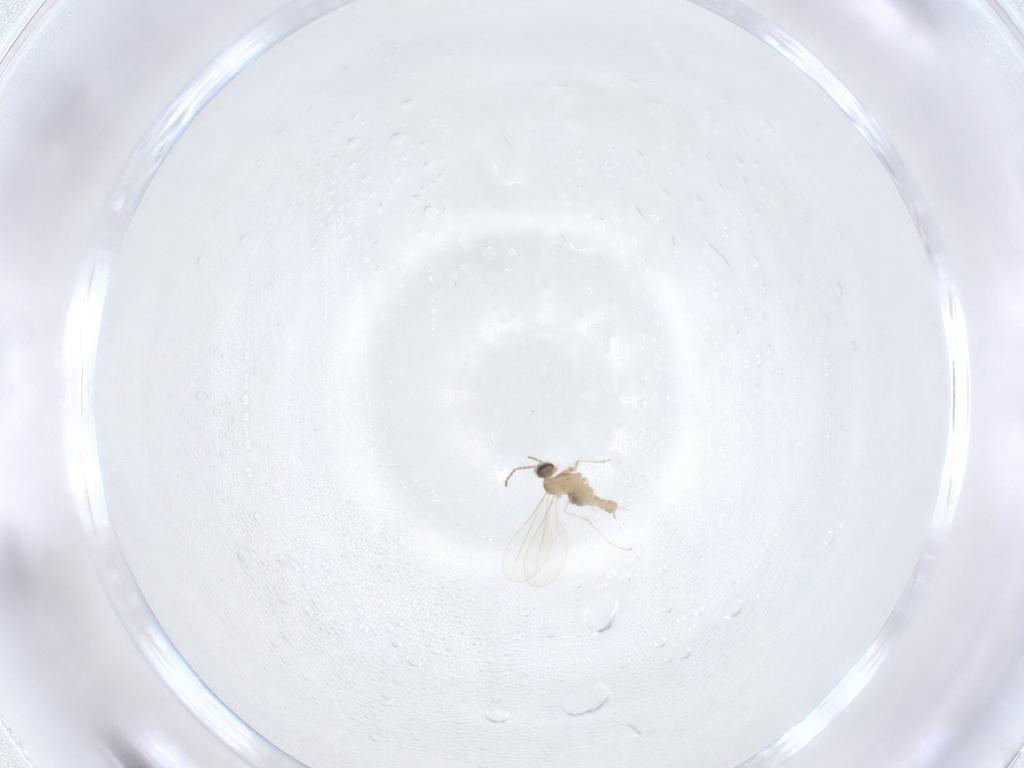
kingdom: Animalia
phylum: Arthropoda
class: Insecta
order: Diptera
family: Cecidomyiidae
